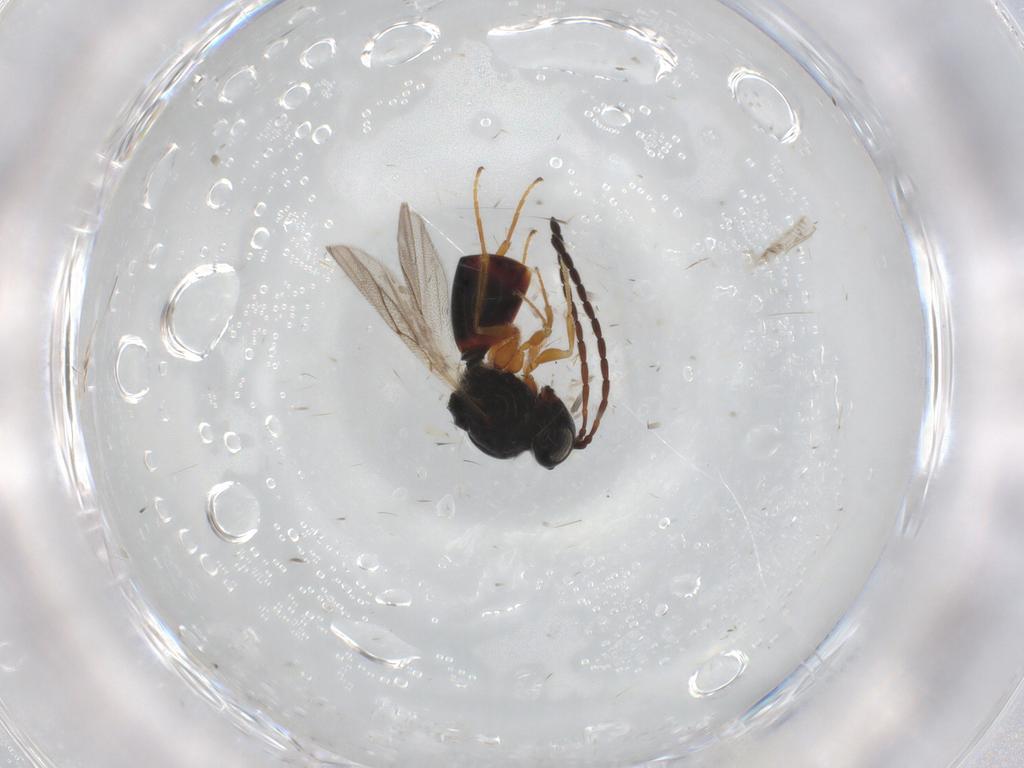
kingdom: Animalia
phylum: Arthropoda
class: Insecta
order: Hymenoptera
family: Figitidae
